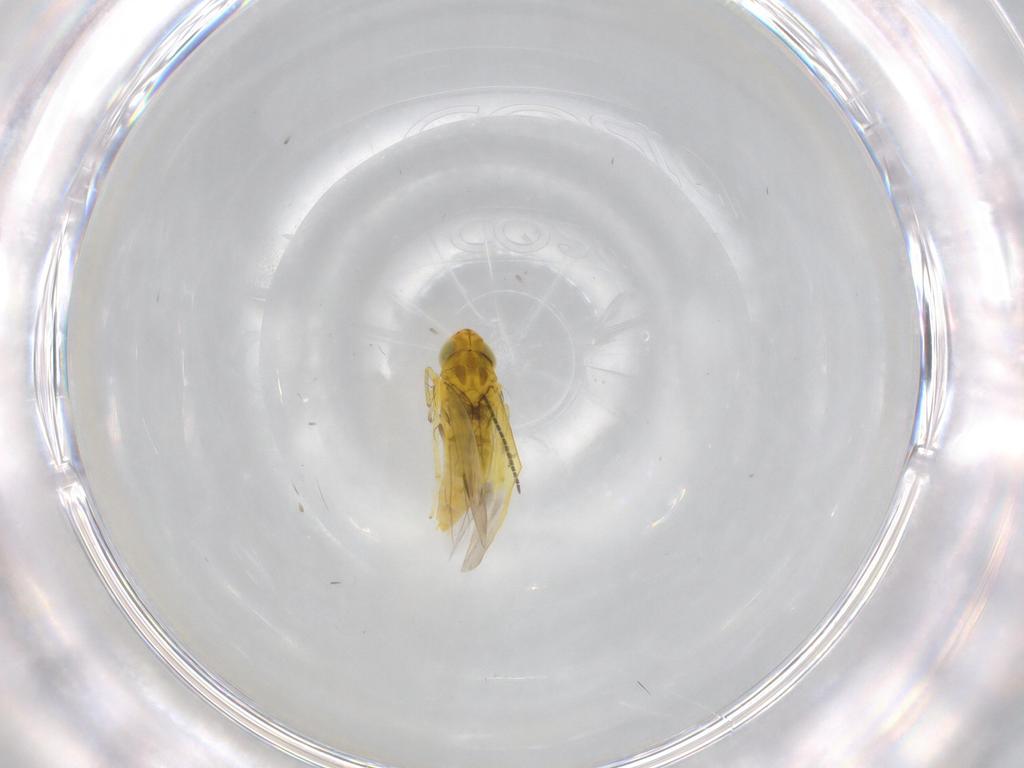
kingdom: Animalia
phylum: Arthropoda
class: Insecta
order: Hemiptera
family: Cicadellidae
